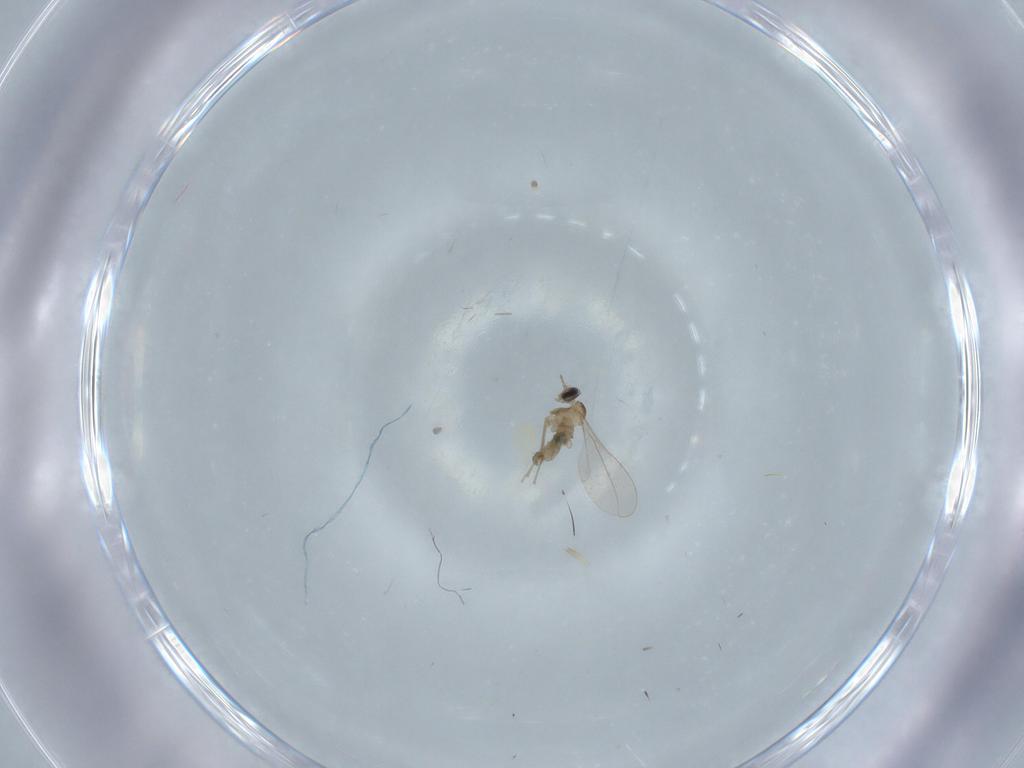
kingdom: Animalia
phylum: Arthropoda
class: Insecta
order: Diptera
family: Cecidomyiidae
